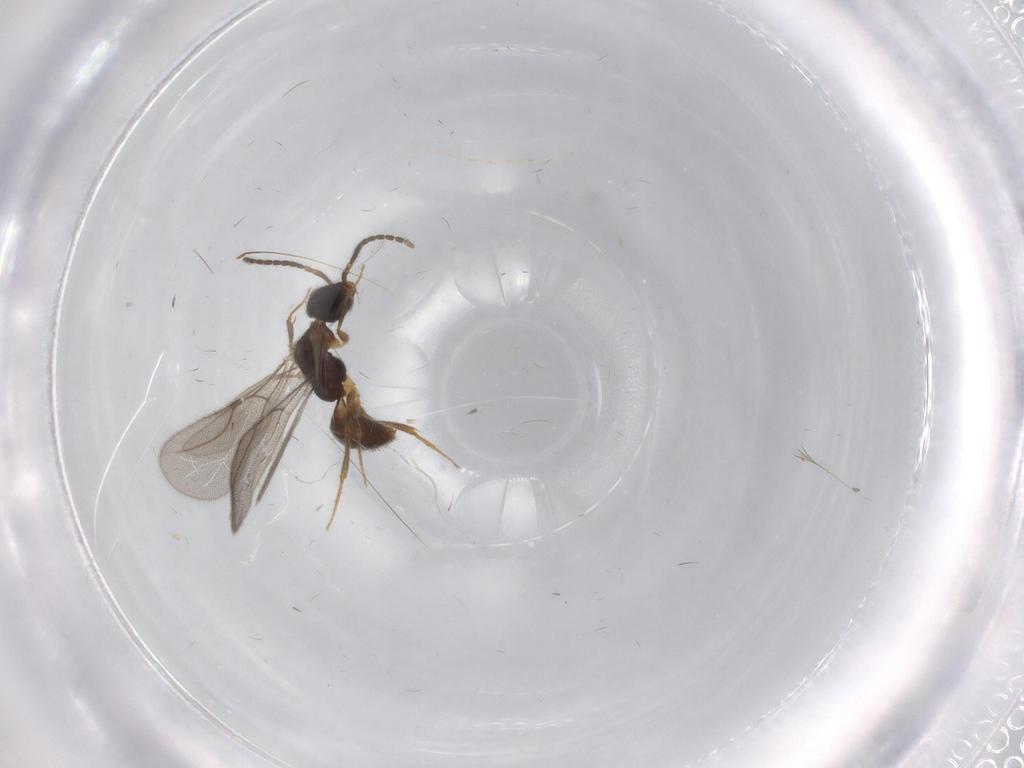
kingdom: Animalia
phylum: Arthropoda
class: Insecta
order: Hymenoptera
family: Bethylidae
